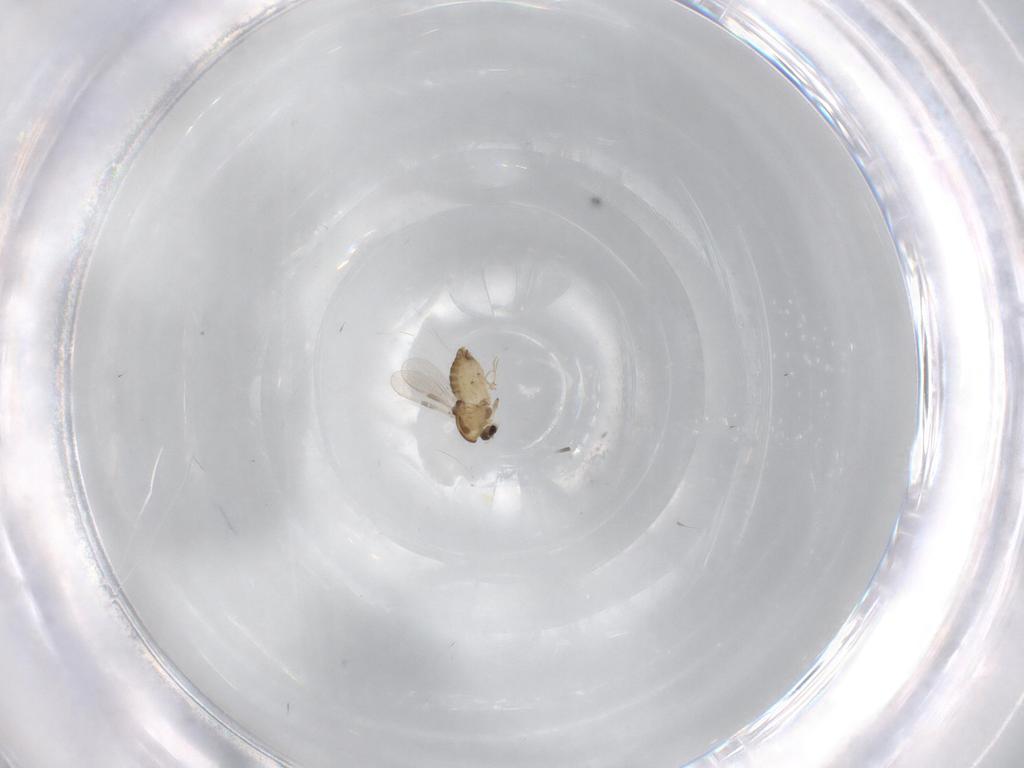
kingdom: Animalia
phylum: Arthropoda
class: Insecta
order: Diptera
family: Chironomidae
